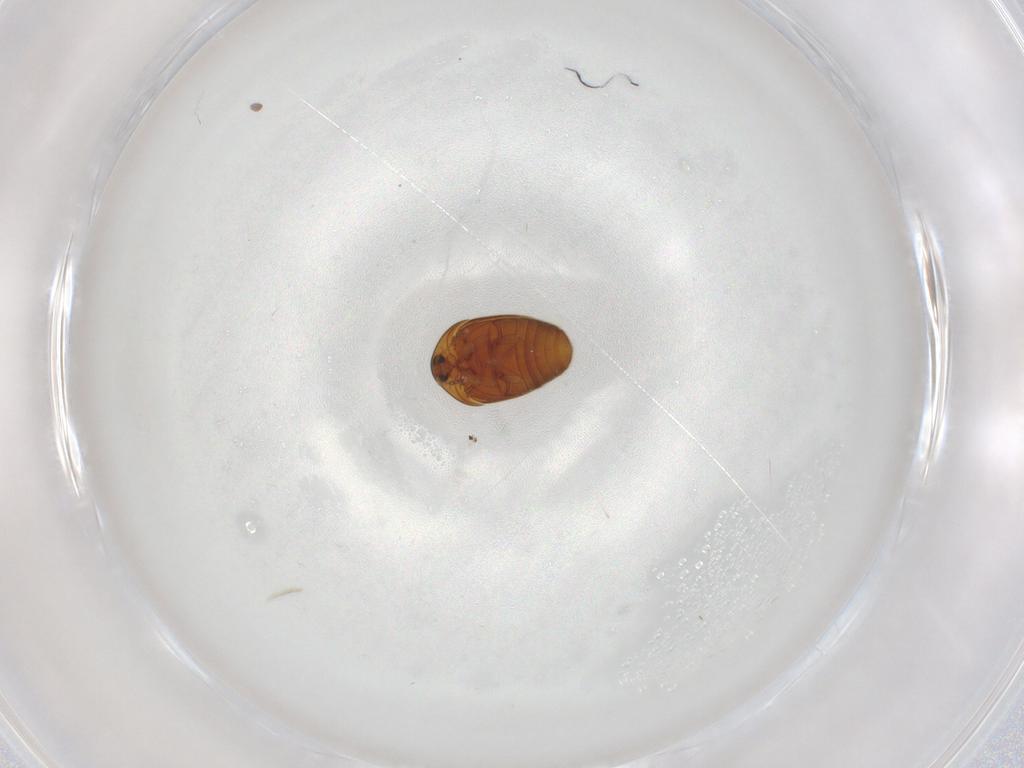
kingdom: Animalia
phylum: Arthropoda
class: Insecta
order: Coleoptera
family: Corylophidae
